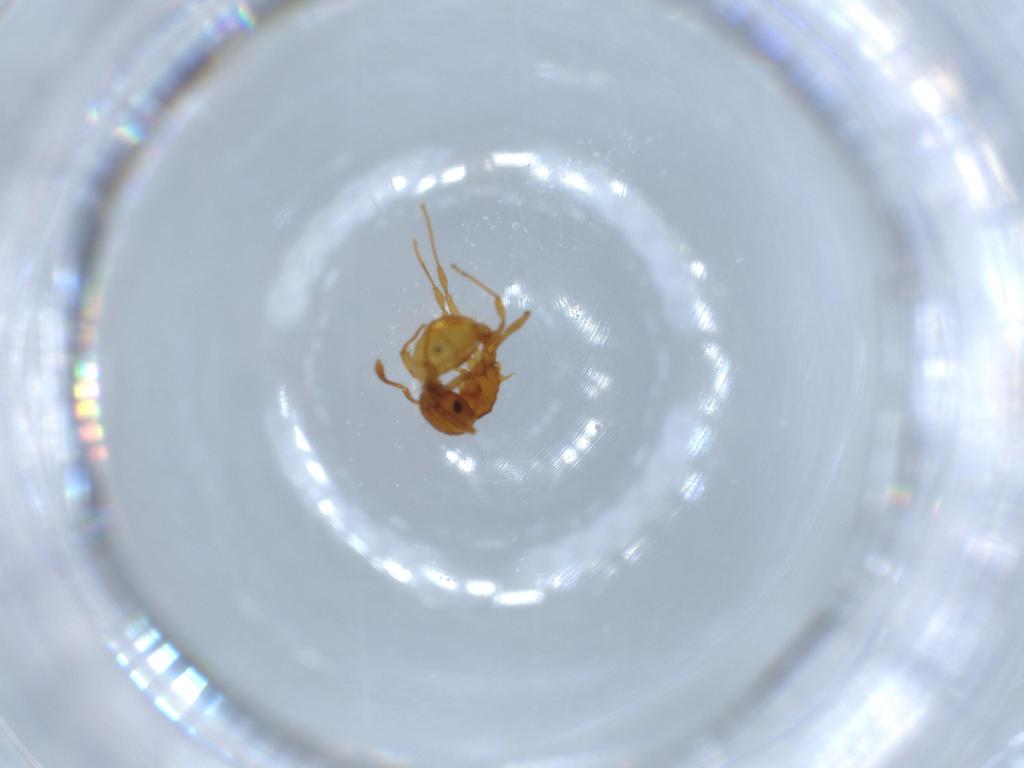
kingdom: Animalia
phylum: Arthropoda
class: Insecta
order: Hymenoptera
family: Formicidae
